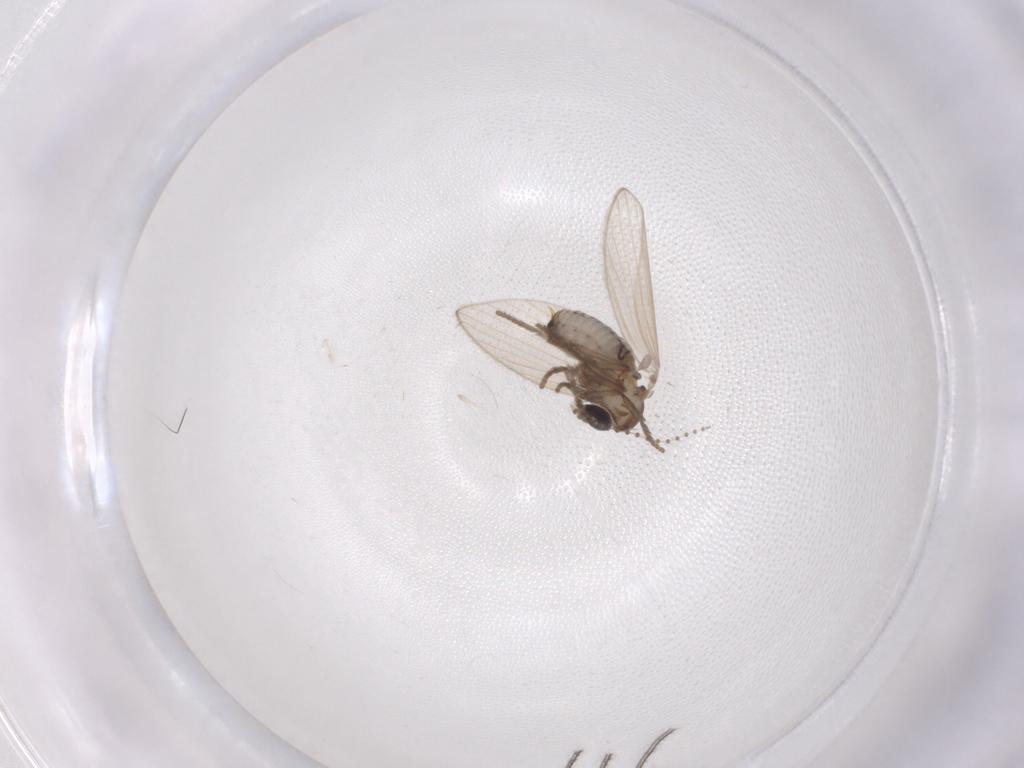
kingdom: Animalia
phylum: Arthropoda
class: Insecta
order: Diptera
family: Psychodidae
